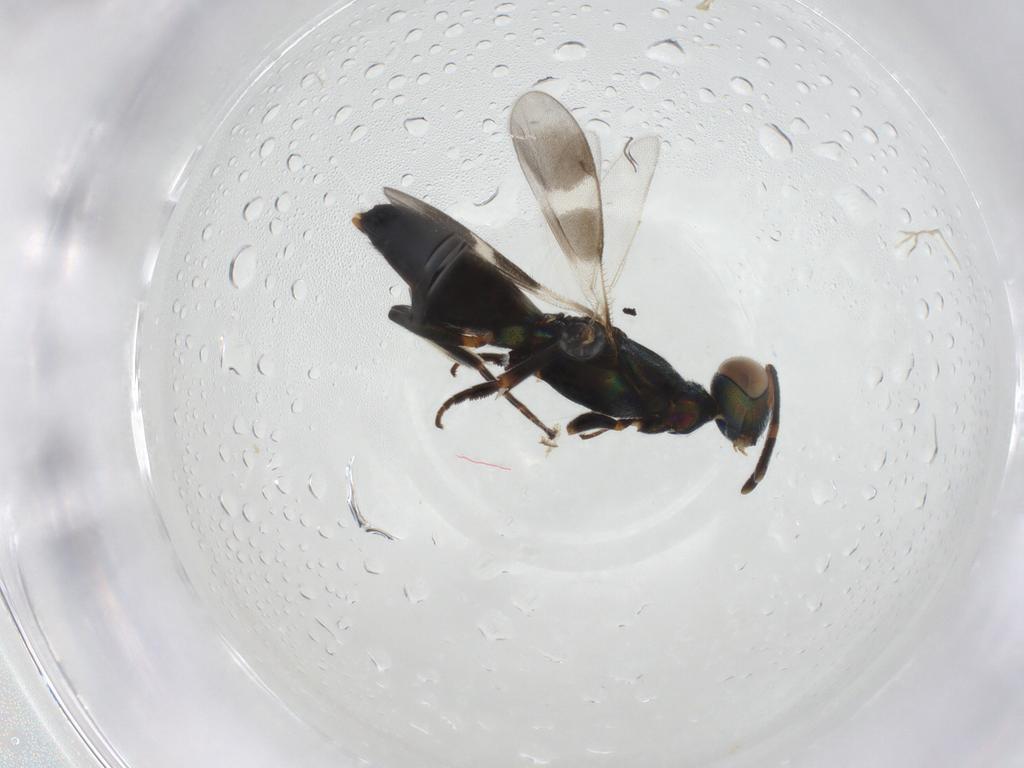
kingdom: Animalia
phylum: Arthropoda
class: Insecta
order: Hymenoptera
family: Eupelmidae
